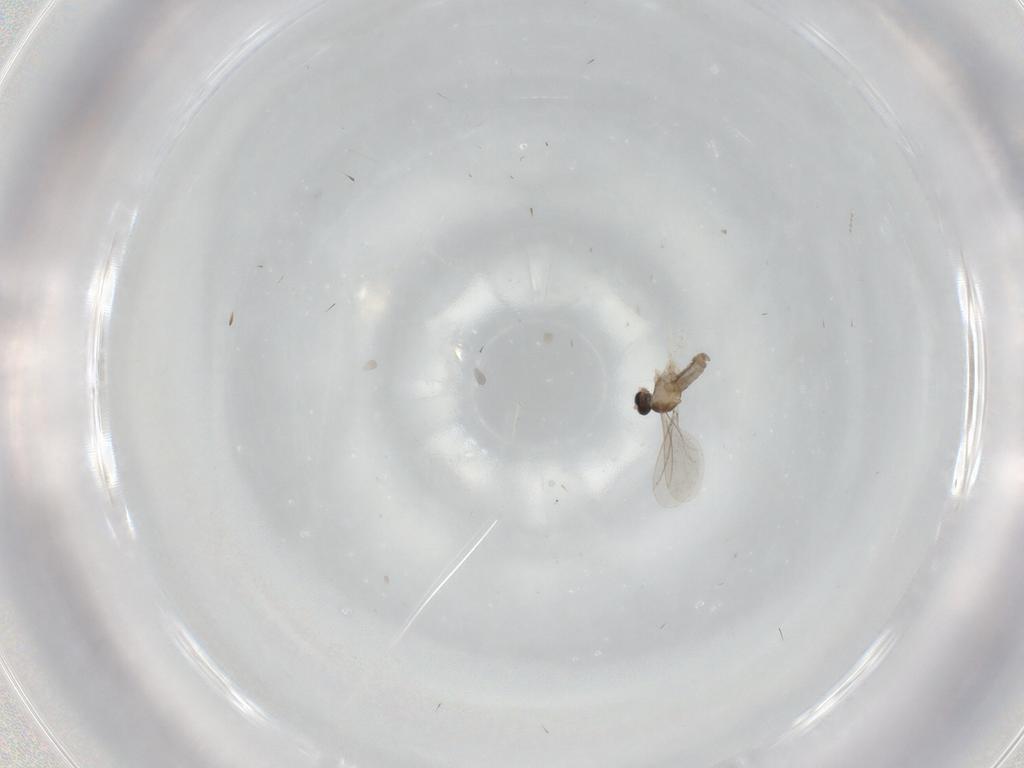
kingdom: Animalia
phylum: Arthropoda
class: Insecta
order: Diptera
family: Cecidomyiidae
